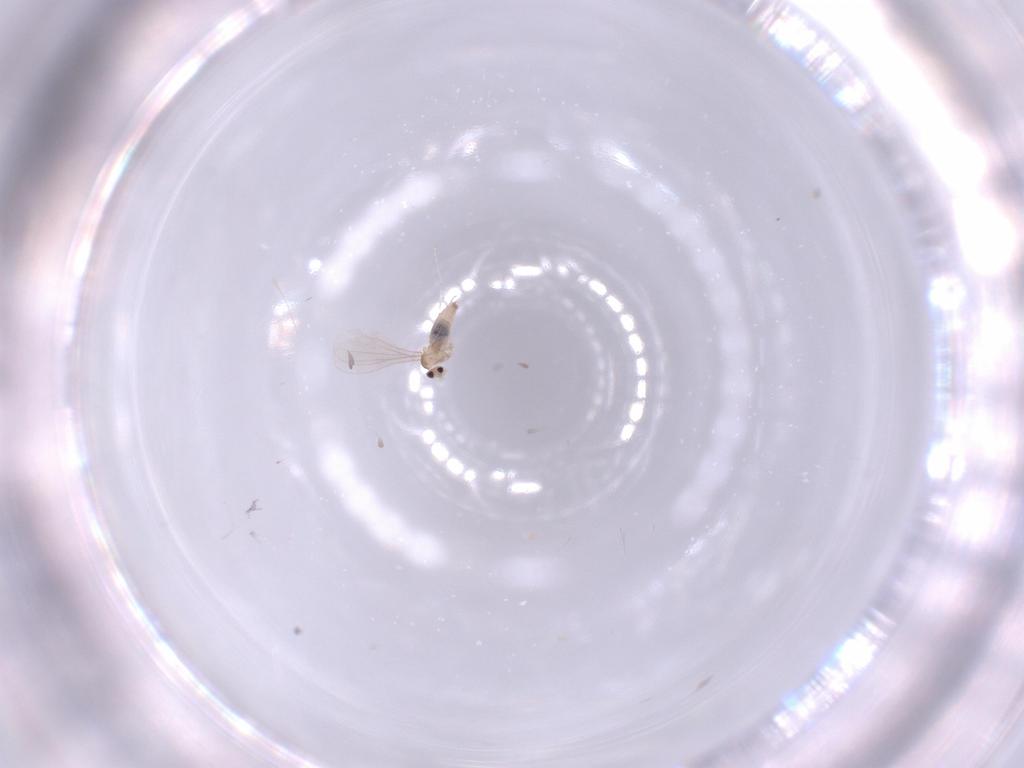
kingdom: Animalia
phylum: Arthropoda
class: Insecta
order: Diptera
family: Cecidomyiidae
